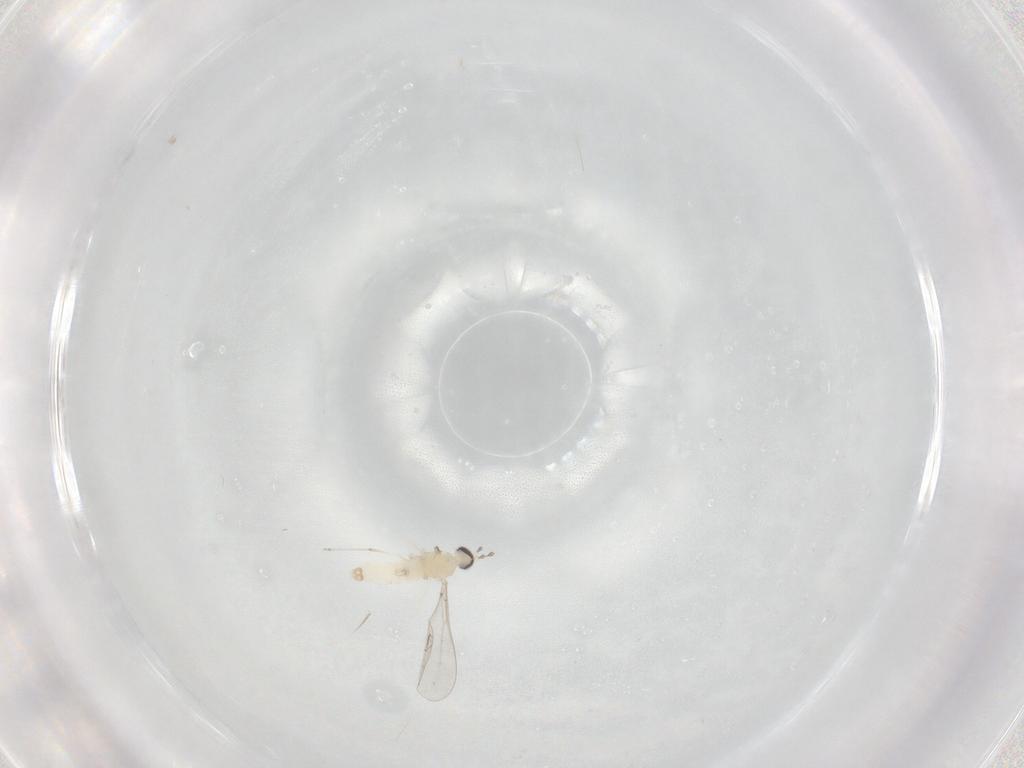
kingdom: Animalia
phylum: Arthropoda
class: Insecta
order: Diptera
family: Cecidomyiidae
